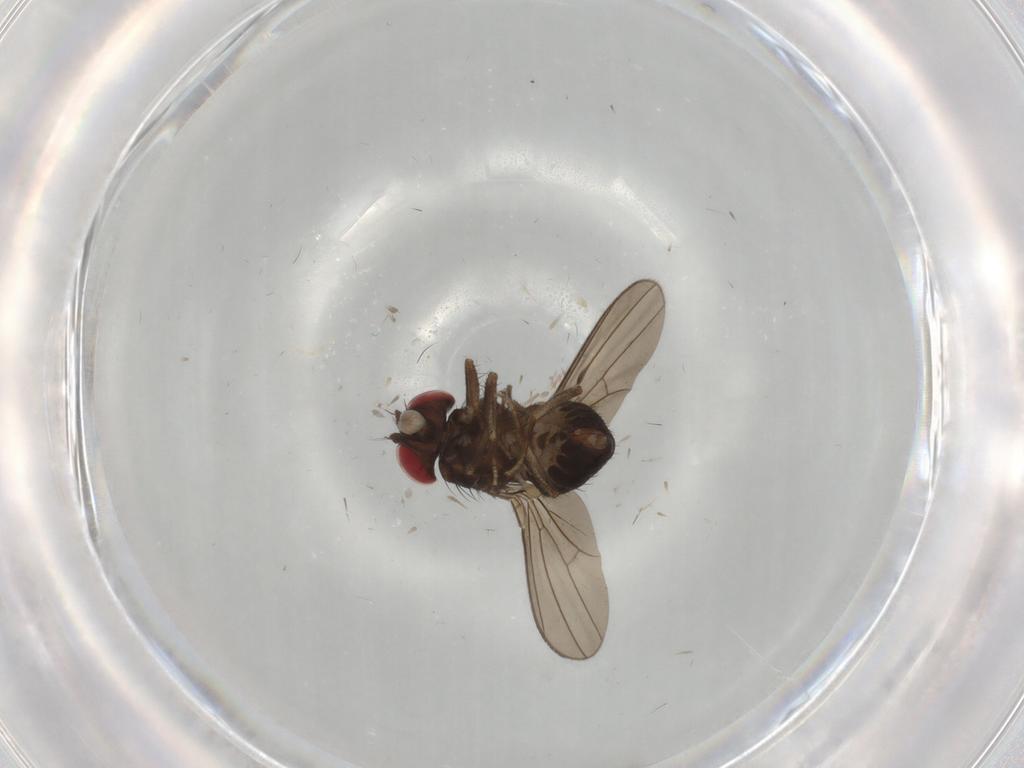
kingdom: Animalia
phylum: Arthropoda
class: Insecta
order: Diptera
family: Drosophilidae
